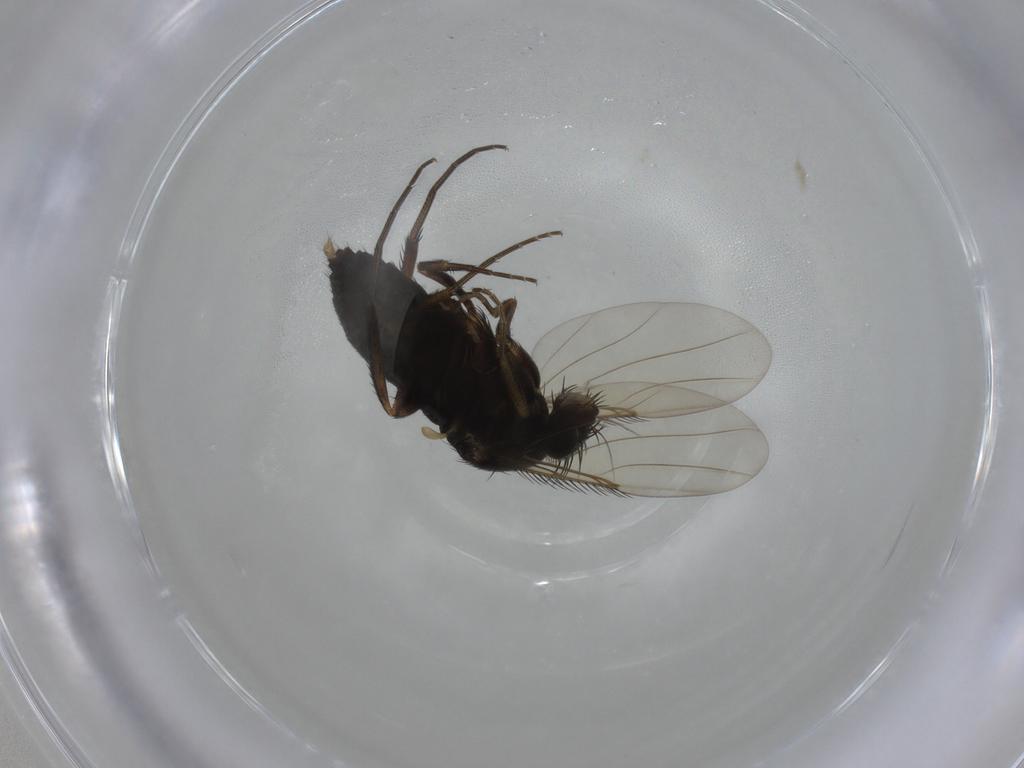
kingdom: Animalia
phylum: Arthropoda
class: Insecta
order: Diptera
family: Phoridae
